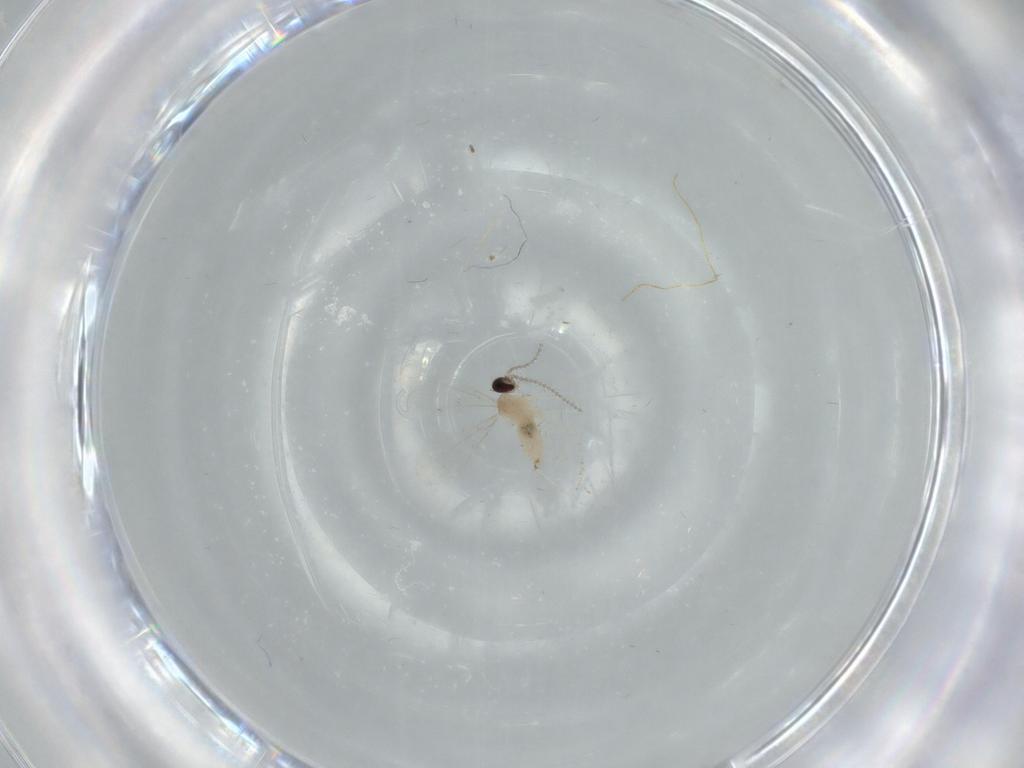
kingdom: Animalia
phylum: Arthropoda
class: Insecta
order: Diptera
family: Cecidomyiidae
